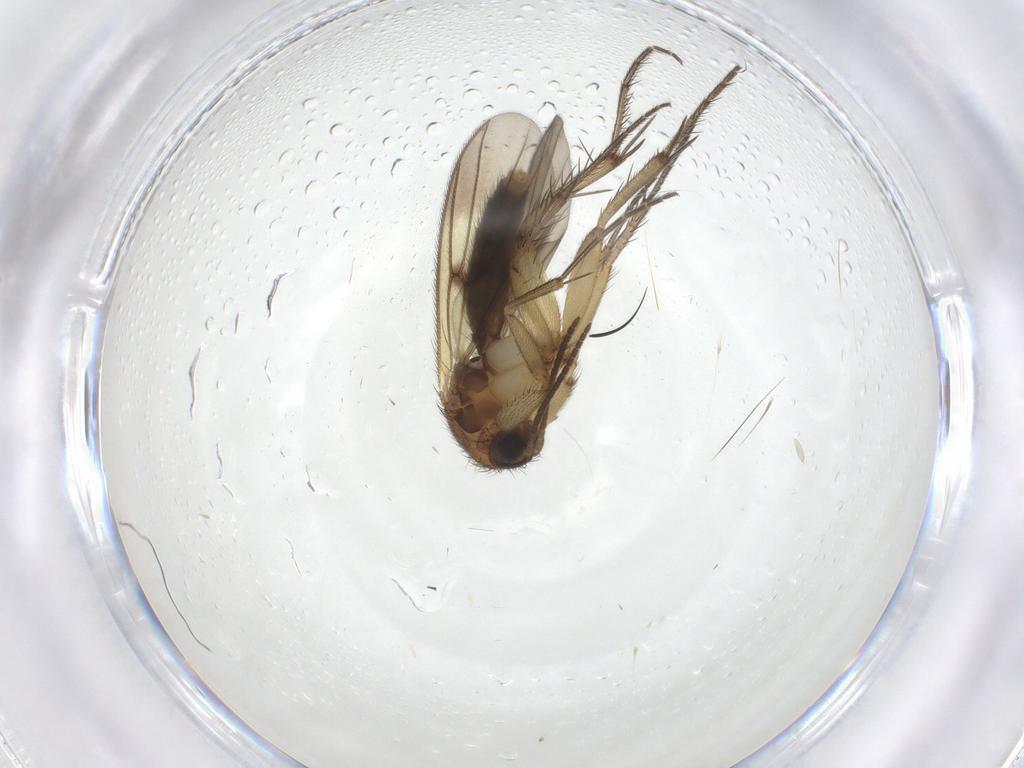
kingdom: Animalia
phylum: Arthropoda
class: Insecta
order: Diptera
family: Mycetophilidae
